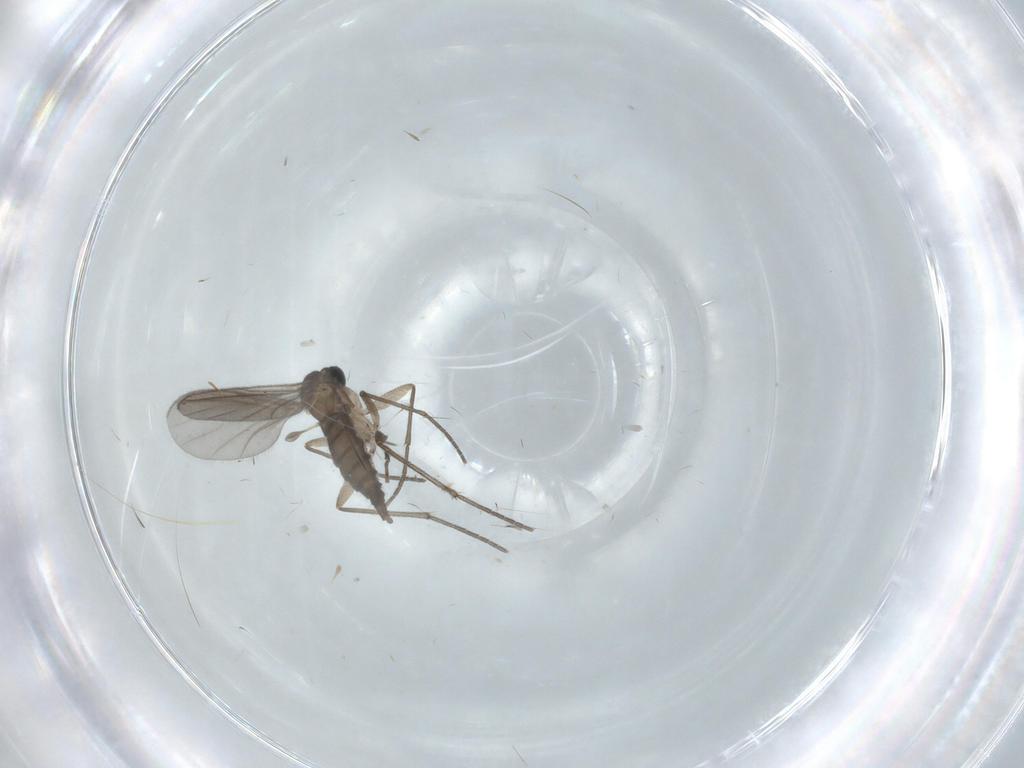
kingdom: Animalia
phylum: Arthropoda
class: Insecta
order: Diptera
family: Sciaridae
